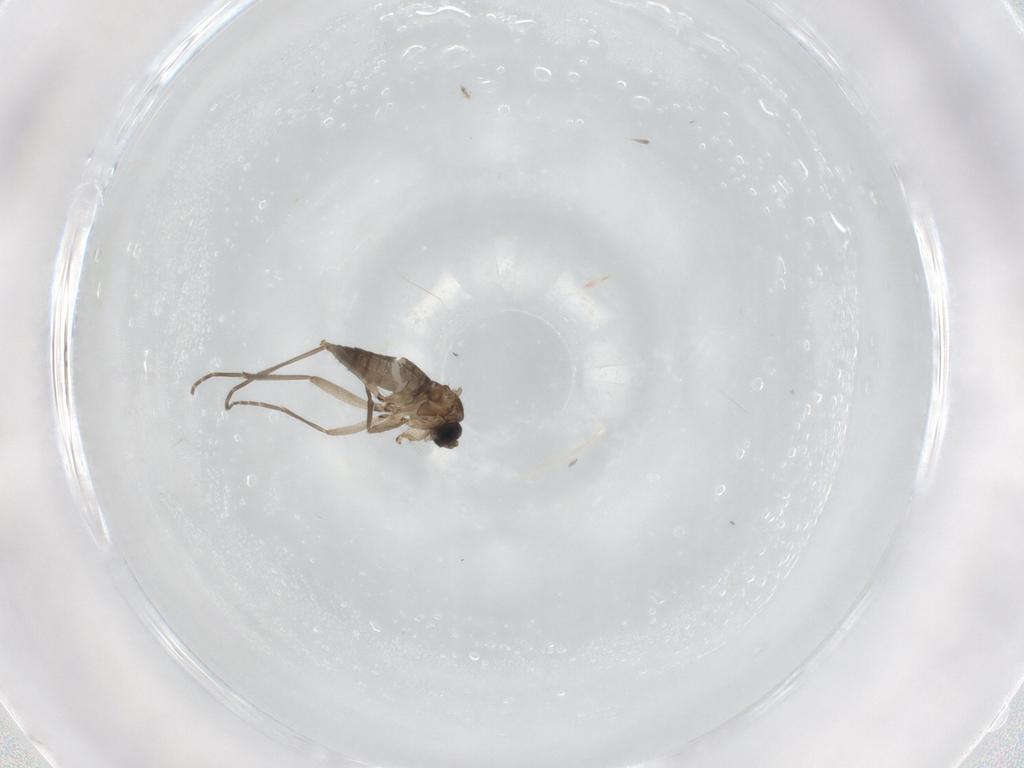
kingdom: Animalia
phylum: Arthropoda
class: Insecta
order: Diptera
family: Sciaridae
